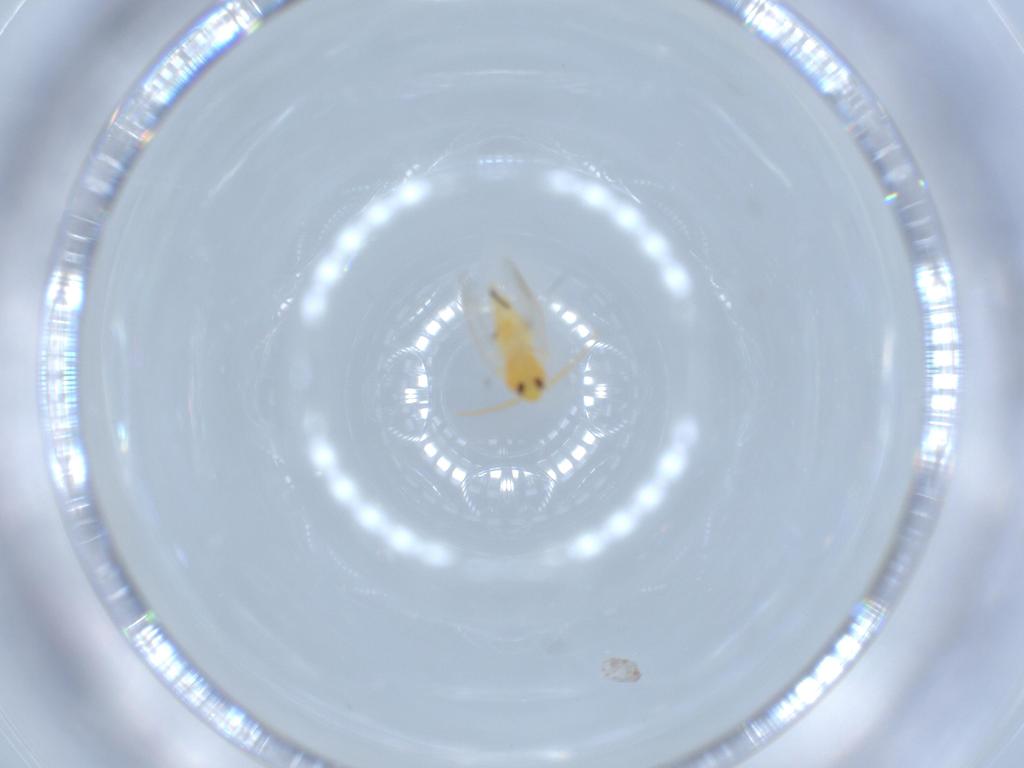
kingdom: Animalia
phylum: Arthropoda
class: Insecta
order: Hemiptera
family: Aleyrodidae
